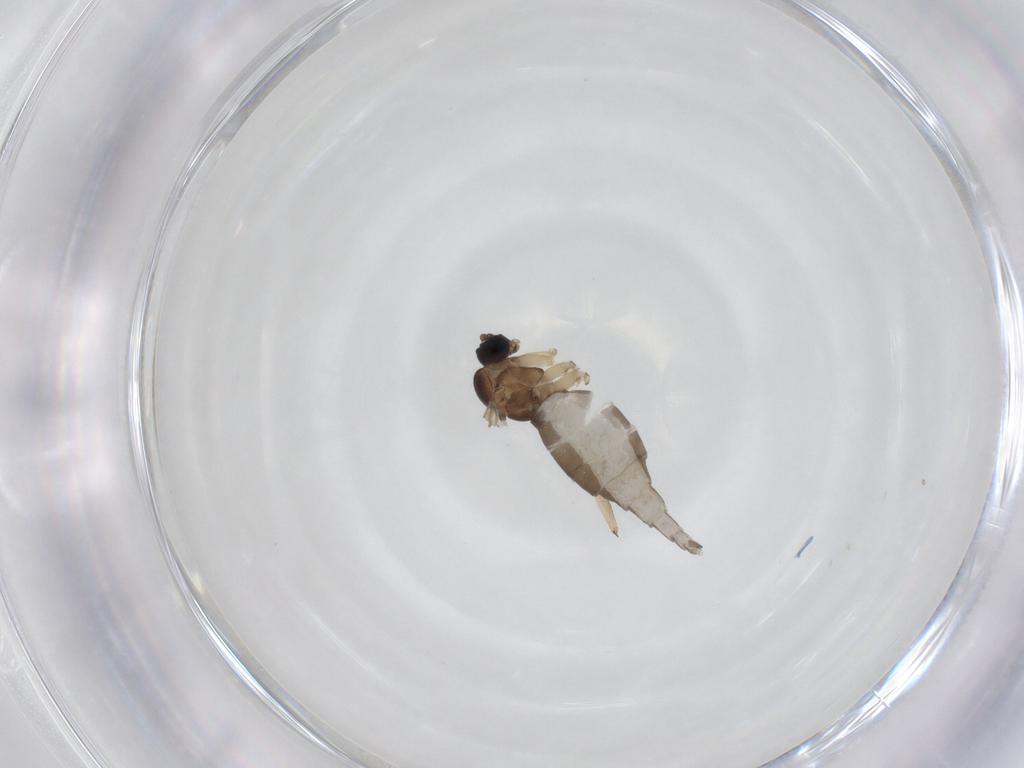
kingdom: Animalia
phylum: Arthropoda
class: Insecta
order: Diptera
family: Sciaridae
